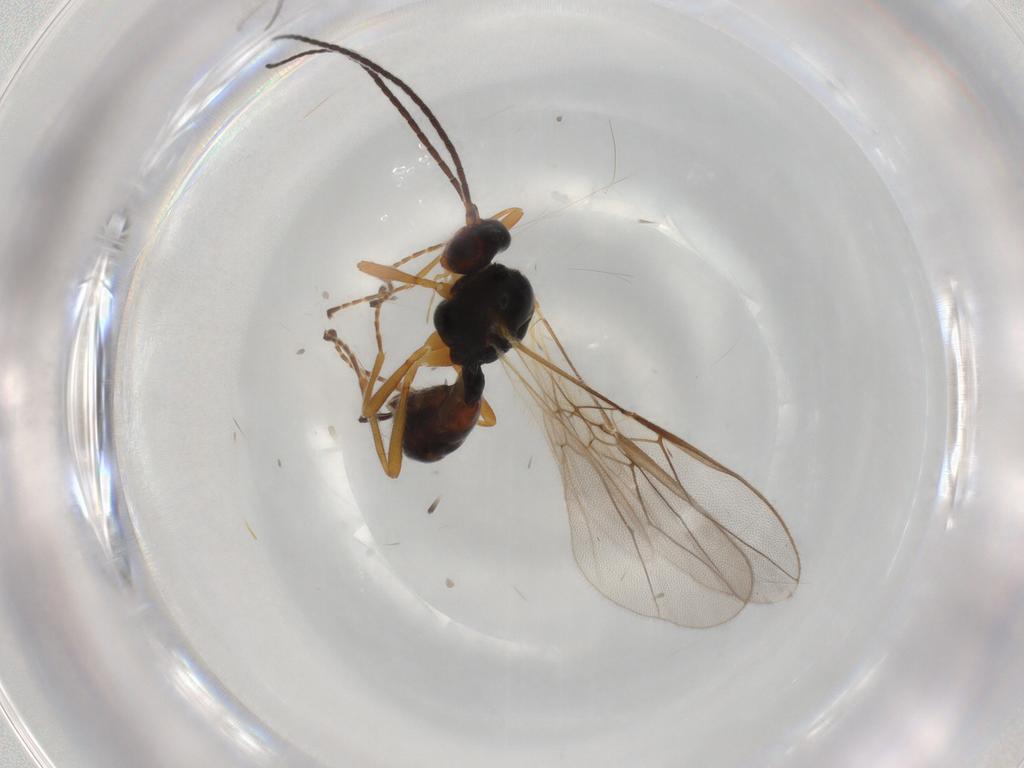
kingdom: Animalia
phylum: Arthropoda
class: Insecta
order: Hymenoptera
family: Braconidae
